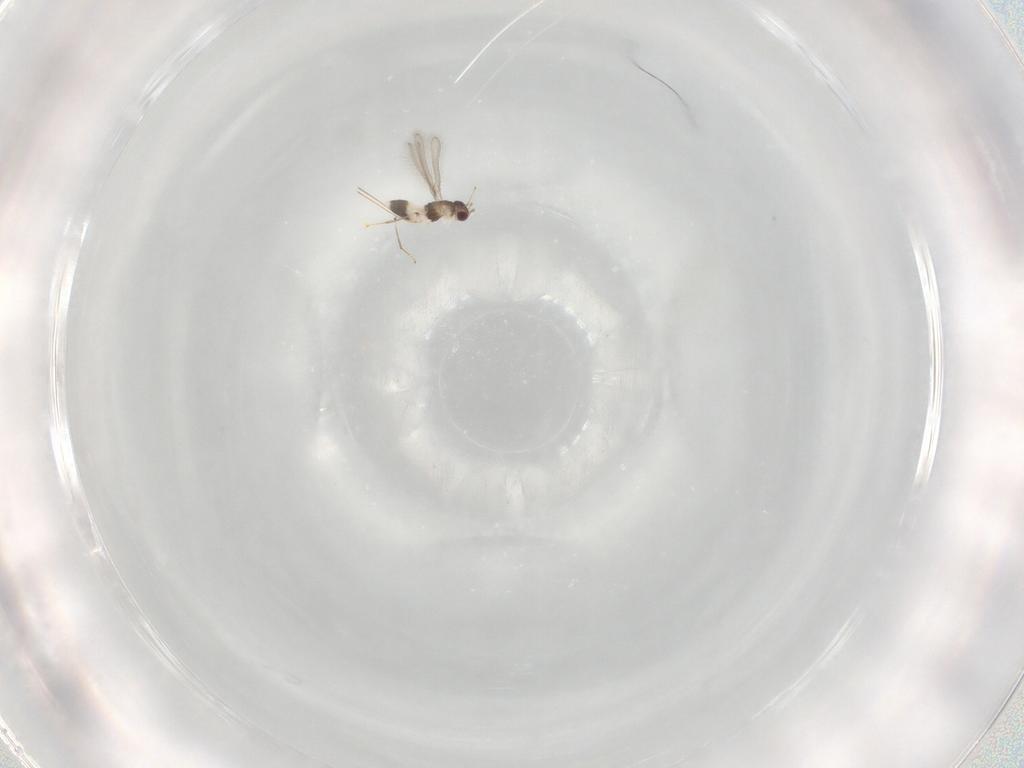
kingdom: Animalia
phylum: Arthropoda
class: Insecta
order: Hymenoptera
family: Mymaridae
